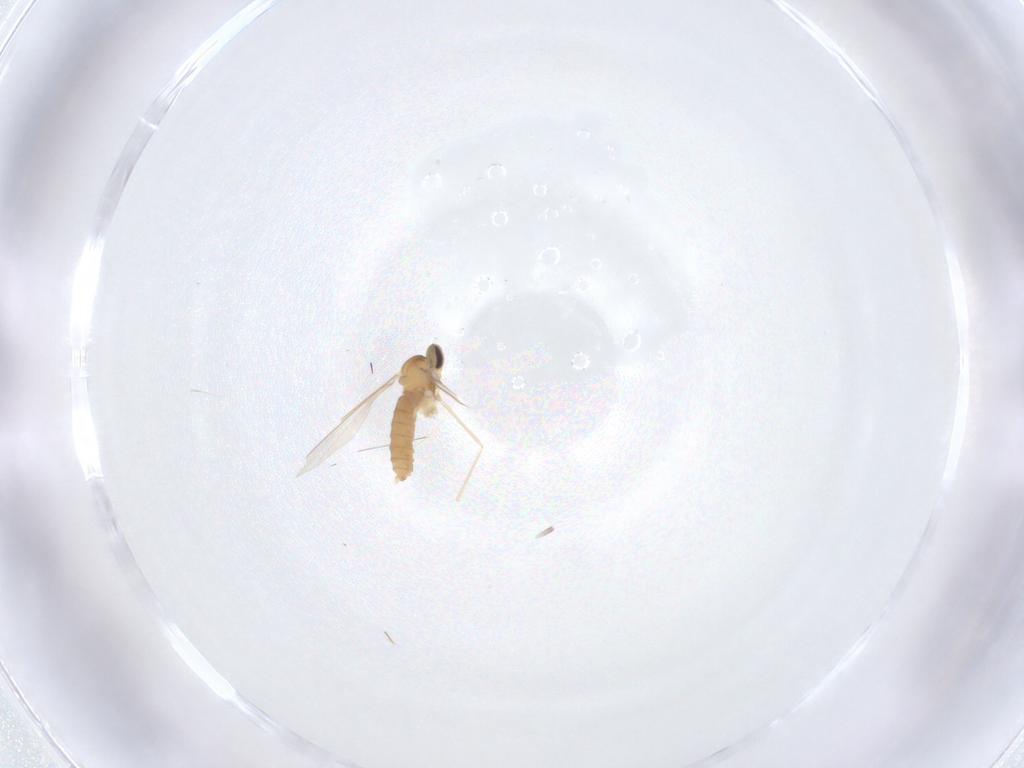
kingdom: Animalia
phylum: Arthropoda
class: Insecta
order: Diptera
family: Cecidomyiidae
